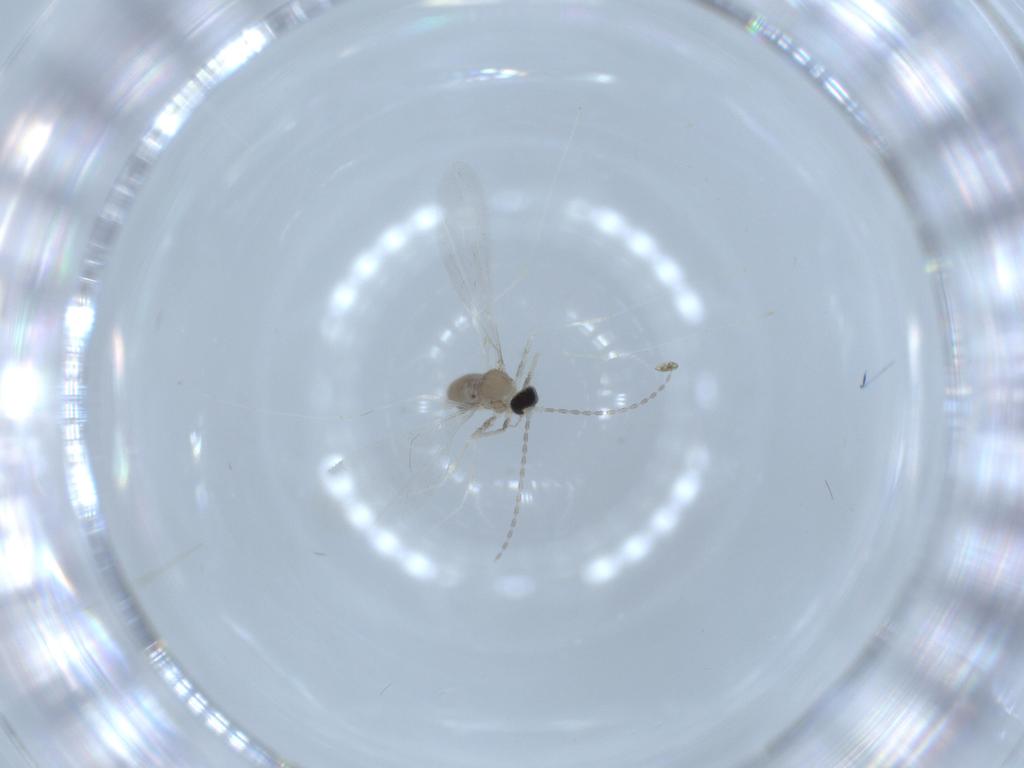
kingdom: Animalia
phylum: Arthropoda
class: Insecta
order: Diptera
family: Cecidomyiidae
